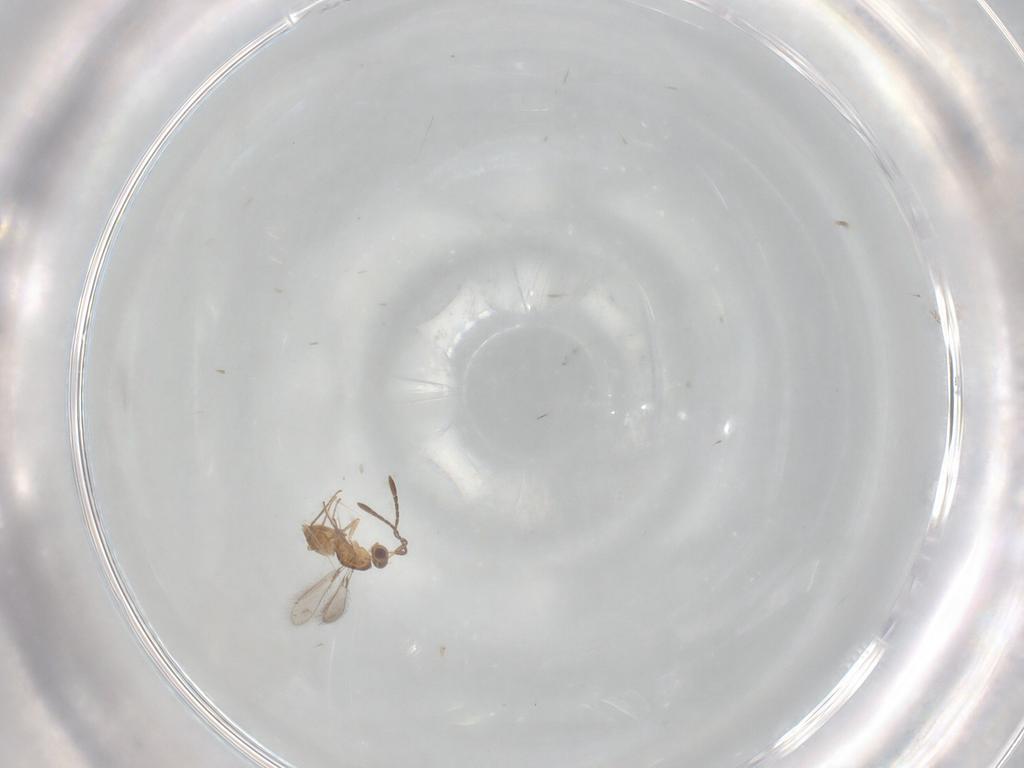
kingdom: Animalia
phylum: Arthropoda
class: Insecta
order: Hymenoptera
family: Mymaridae
